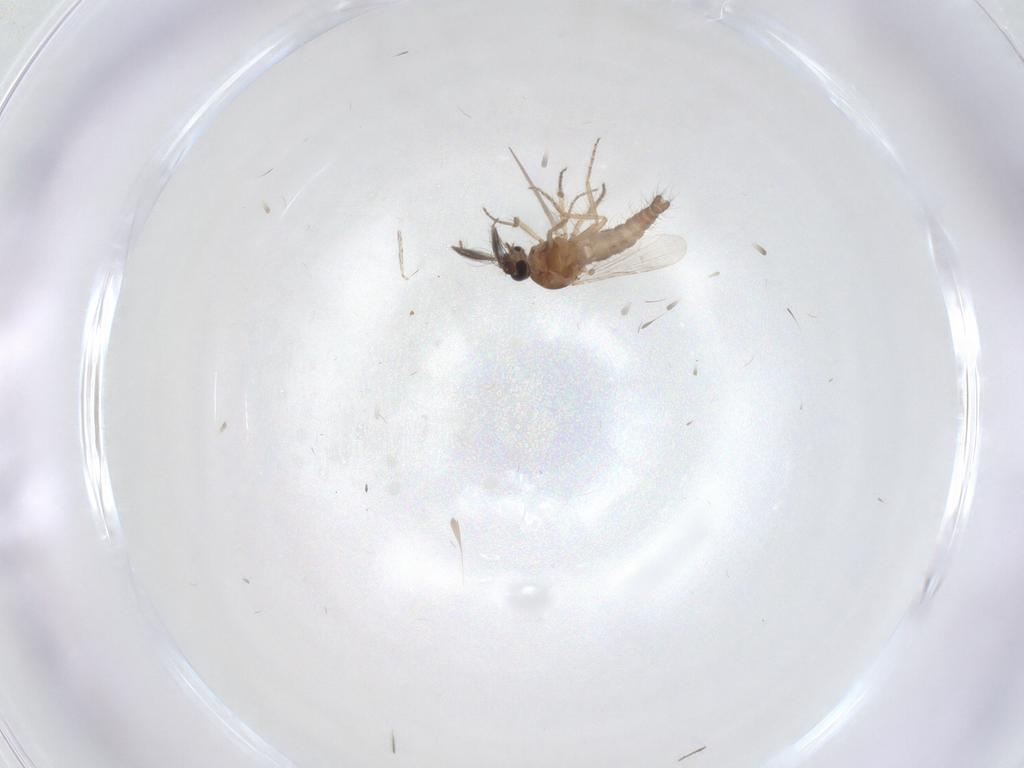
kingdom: Animalia
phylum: Arthropoda
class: Insecta
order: Diptera
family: Ceratopogonidae
